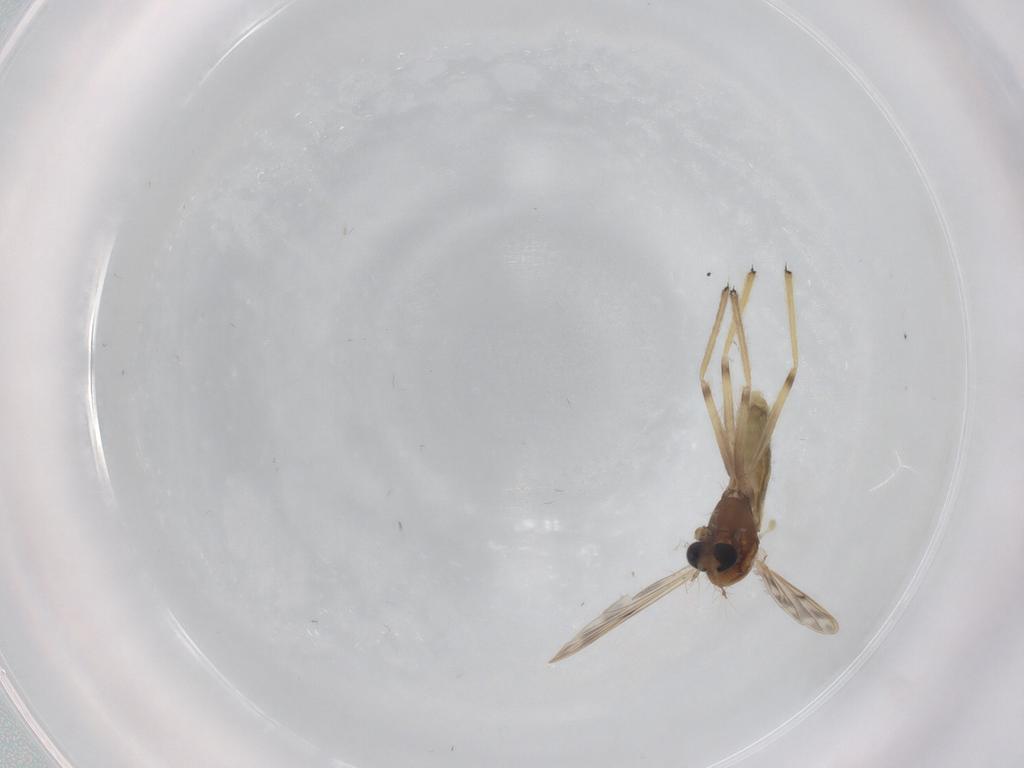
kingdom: Animalia
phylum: Arthropoda
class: Insecta
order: Diptera
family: Chironomidae
